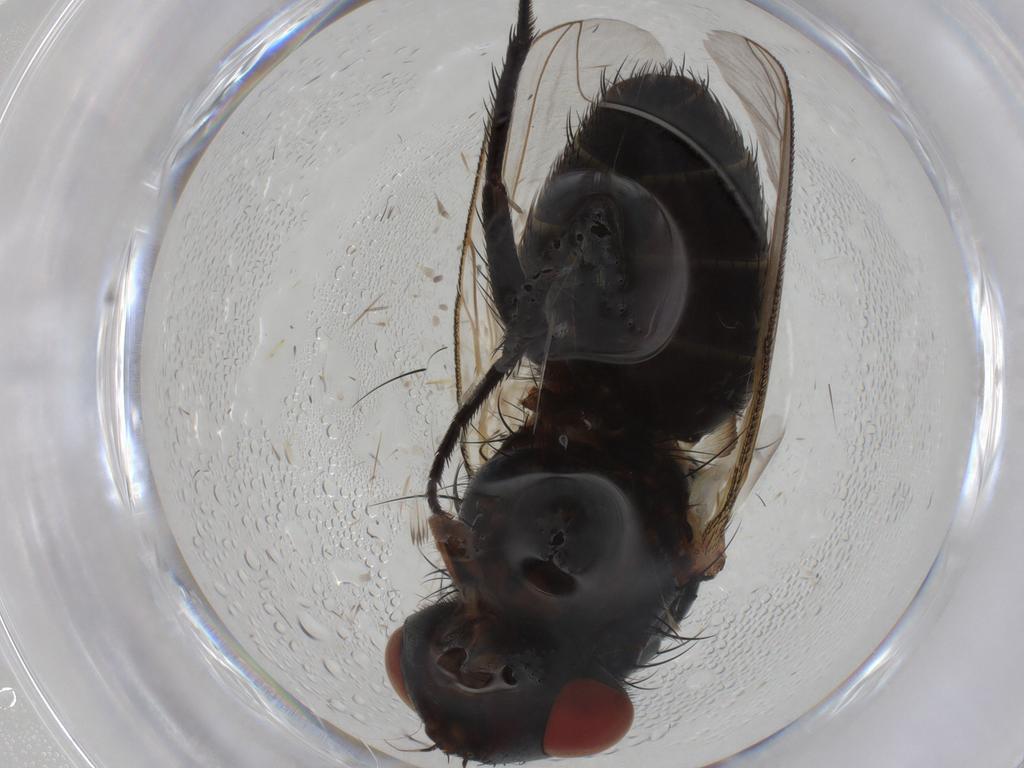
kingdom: Animalia
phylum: Arthropoda
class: Insecta
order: Diptera
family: Sarcophagidae
